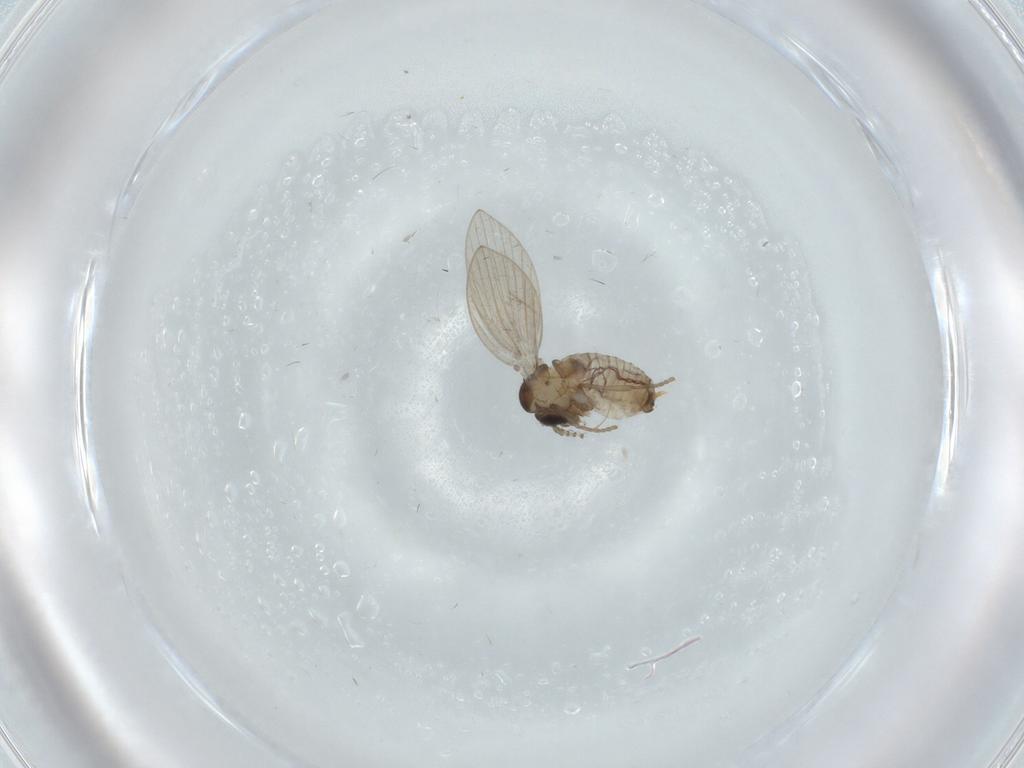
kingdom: Animalia
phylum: Arthropoda
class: Insecta
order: Diptera
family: Psychodidae
